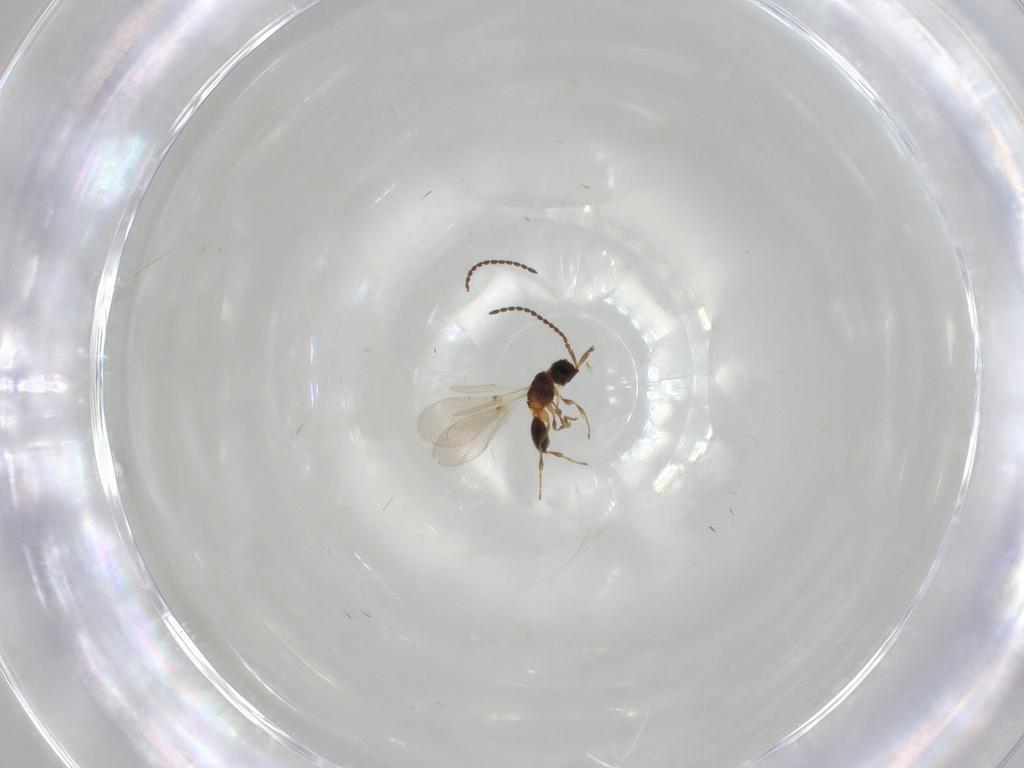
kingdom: Animalia
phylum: Arthropoda
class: Insecta
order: Hymenoptera
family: Diapriidae
